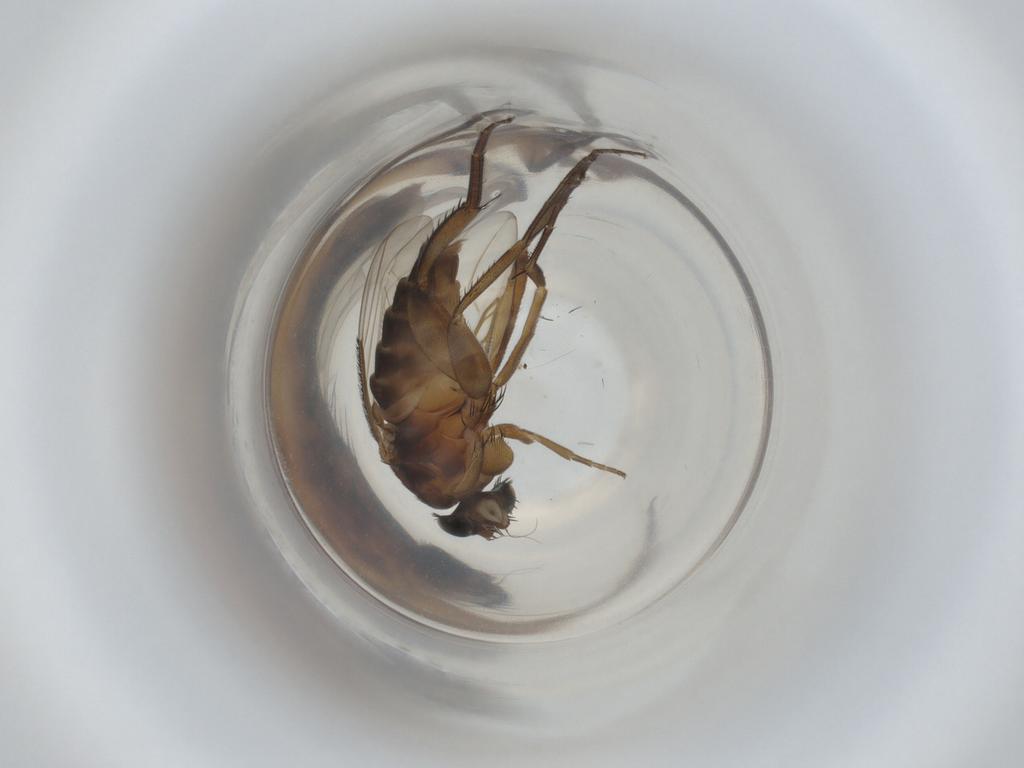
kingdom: Animalia
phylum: Arthropoda
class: Insecta
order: Diptera
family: Phoridae
